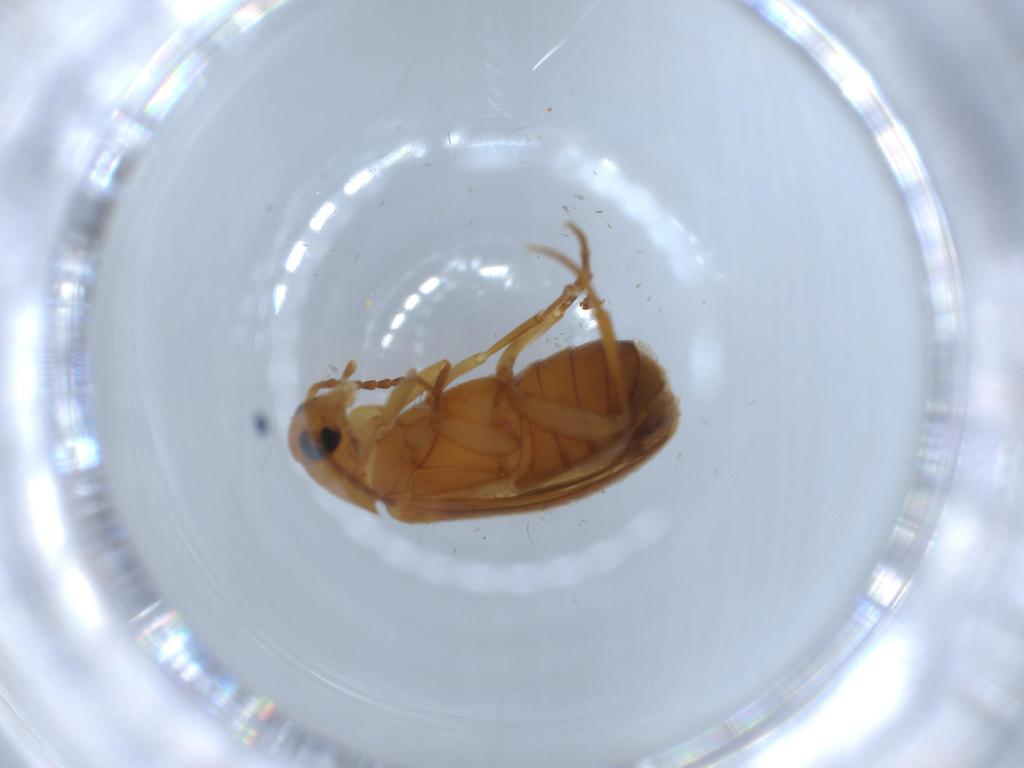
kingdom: Animalia
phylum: Arthropoda
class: Insecta
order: Coleoptera
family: Scraptiidae
